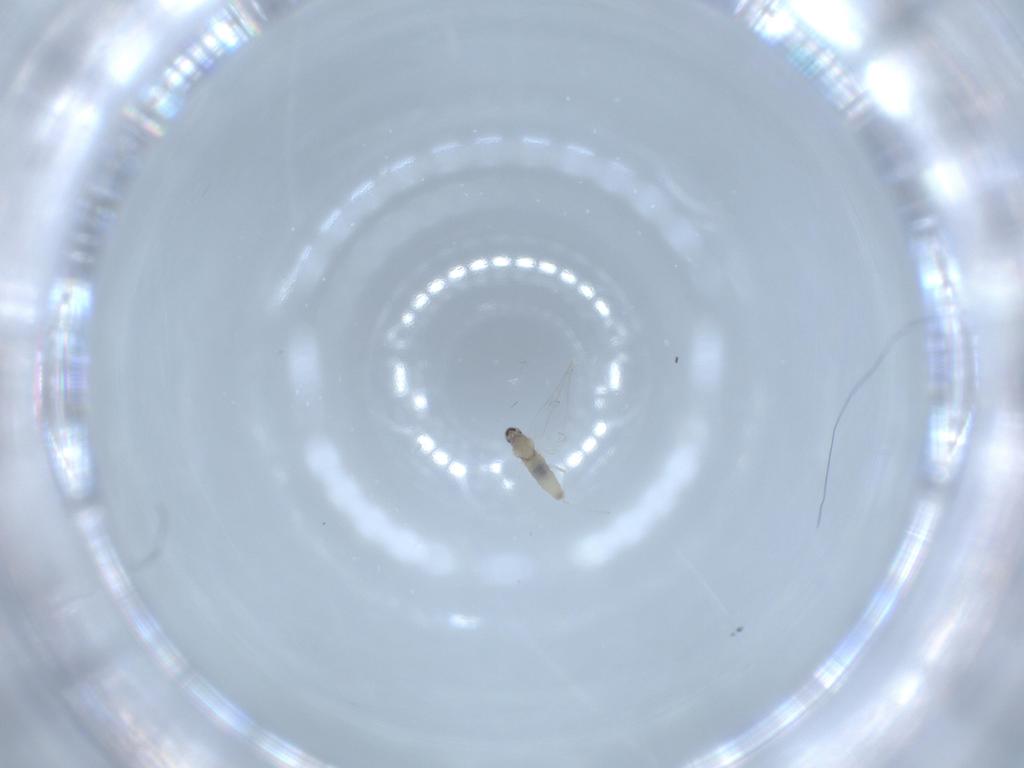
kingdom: Animalia
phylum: Arthropoda
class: Insecta
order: Diptera
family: Cecidomyiidae
